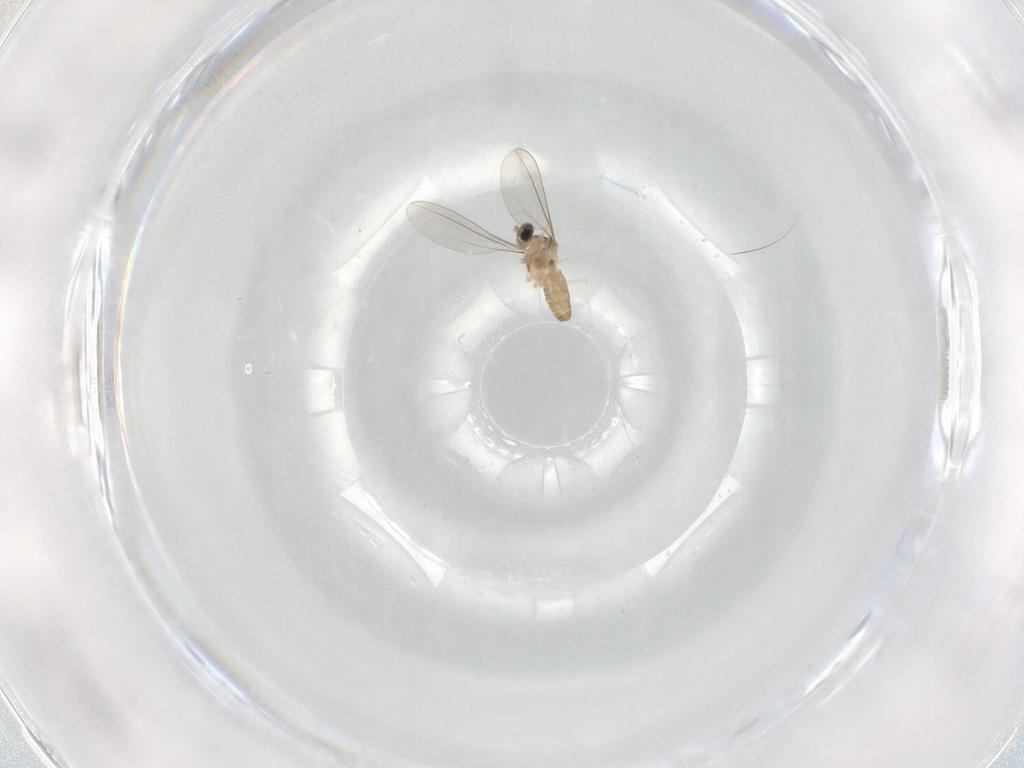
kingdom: Animalia
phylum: Arthropoda
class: Insecta
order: Diptera
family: Cecidomyiidae
